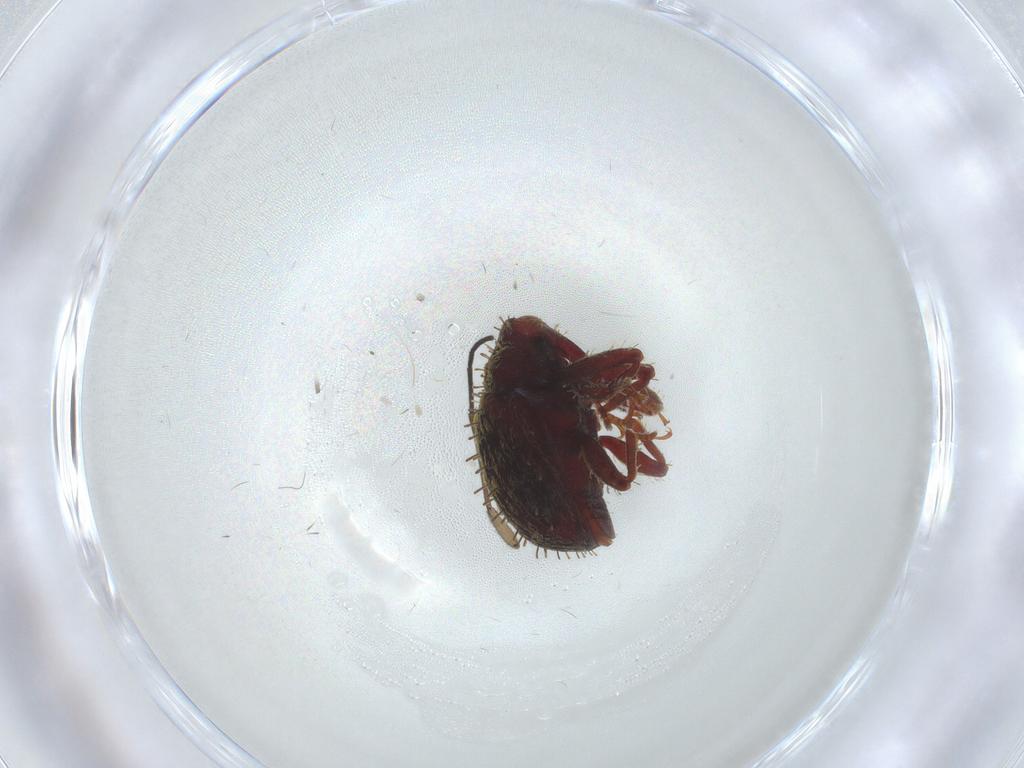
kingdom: Animalia
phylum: Arthropoda
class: Insecta
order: Coleoptera
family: Curculionidae
